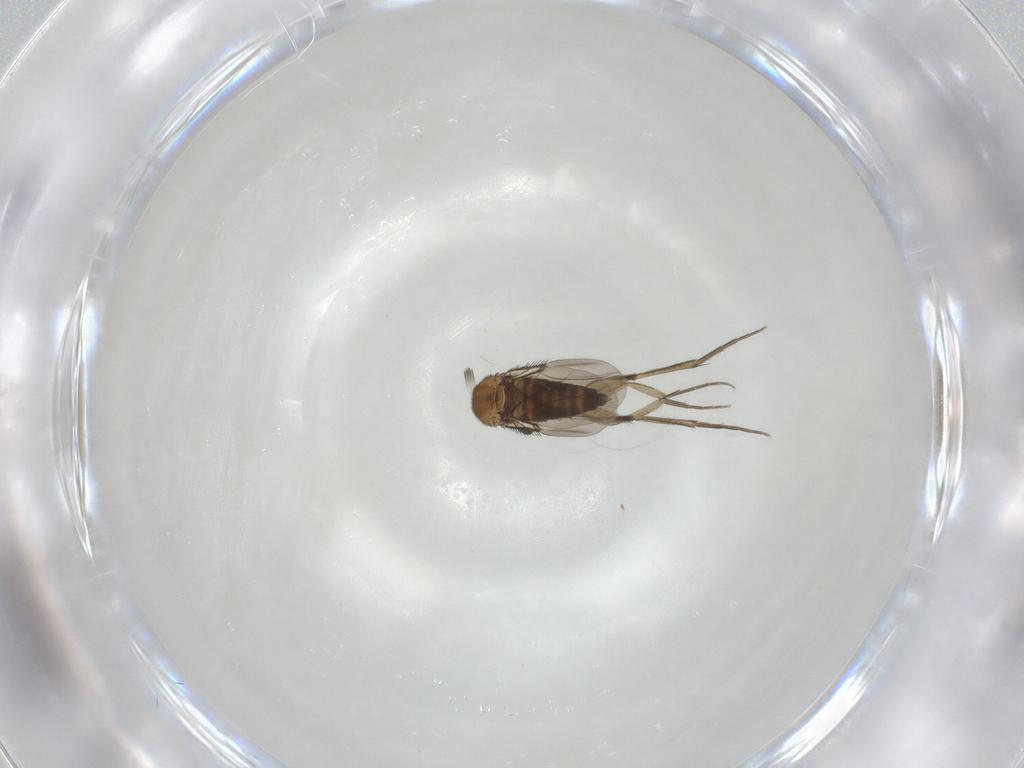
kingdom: Animalia
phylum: Arthropoda
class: Insecta
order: Diptera
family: Phoridae
